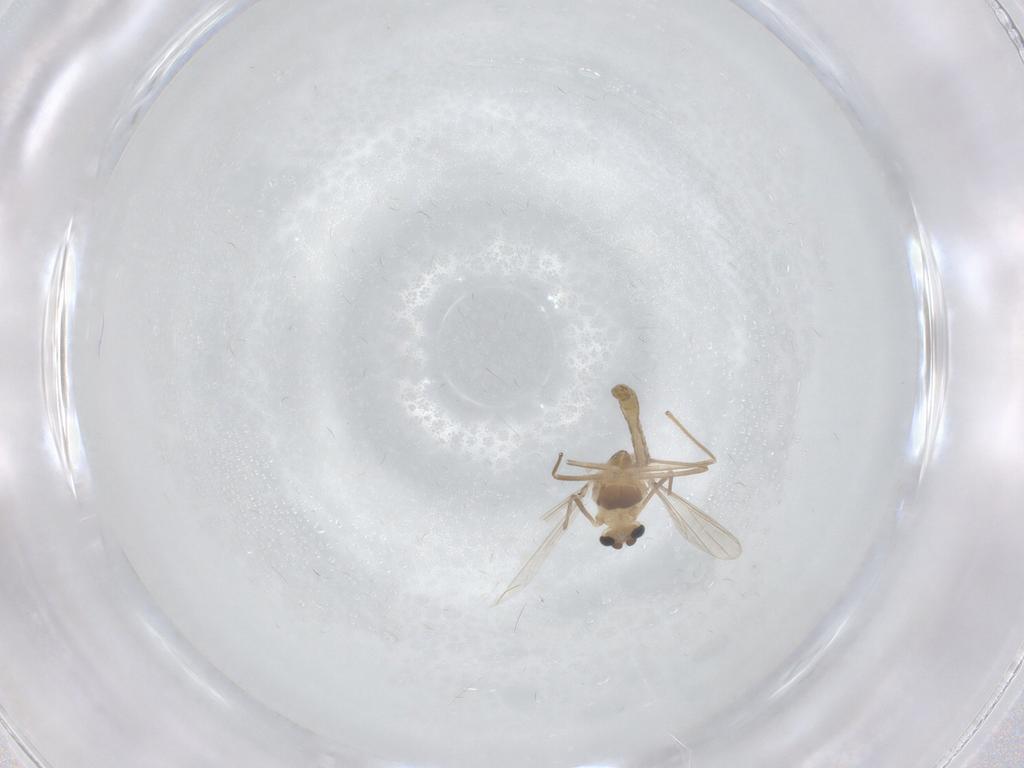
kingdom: Animalia
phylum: Arthropoda
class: Insecta
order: Diptera
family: Chironomidae
